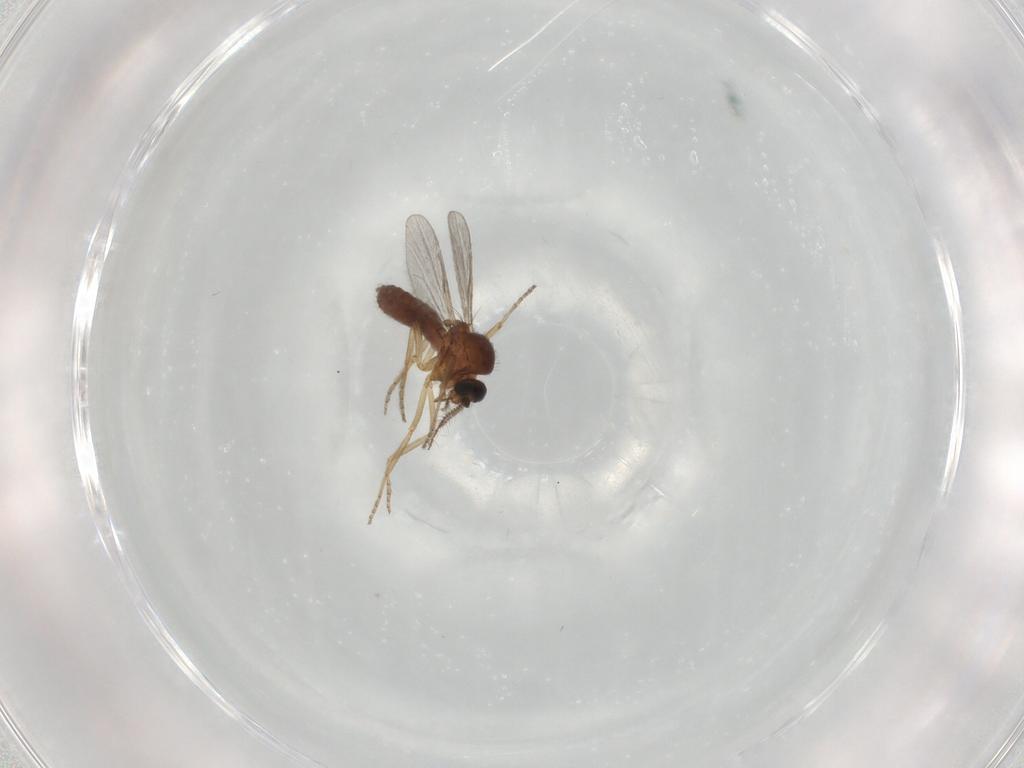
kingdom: Animalia
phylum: Arthropoda
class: Insecta
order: Diptera
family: Ceratopogonidae
